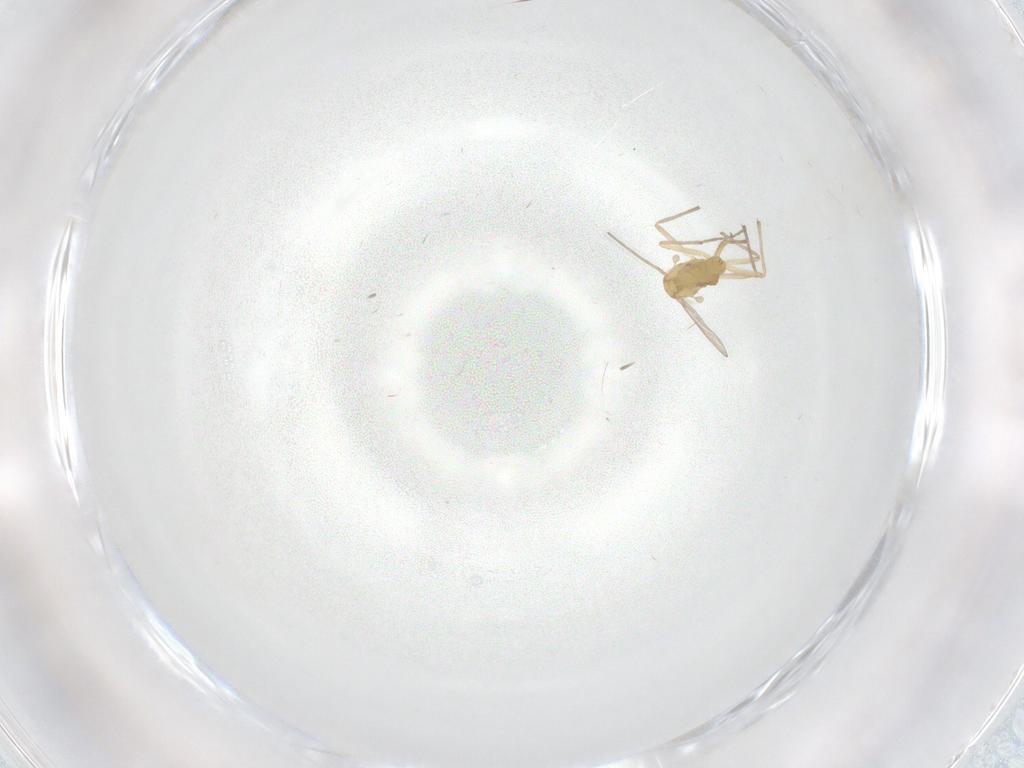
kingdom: Animalia
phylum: Arthropoda
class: Insecta
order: Diptera
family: Chironomidae
